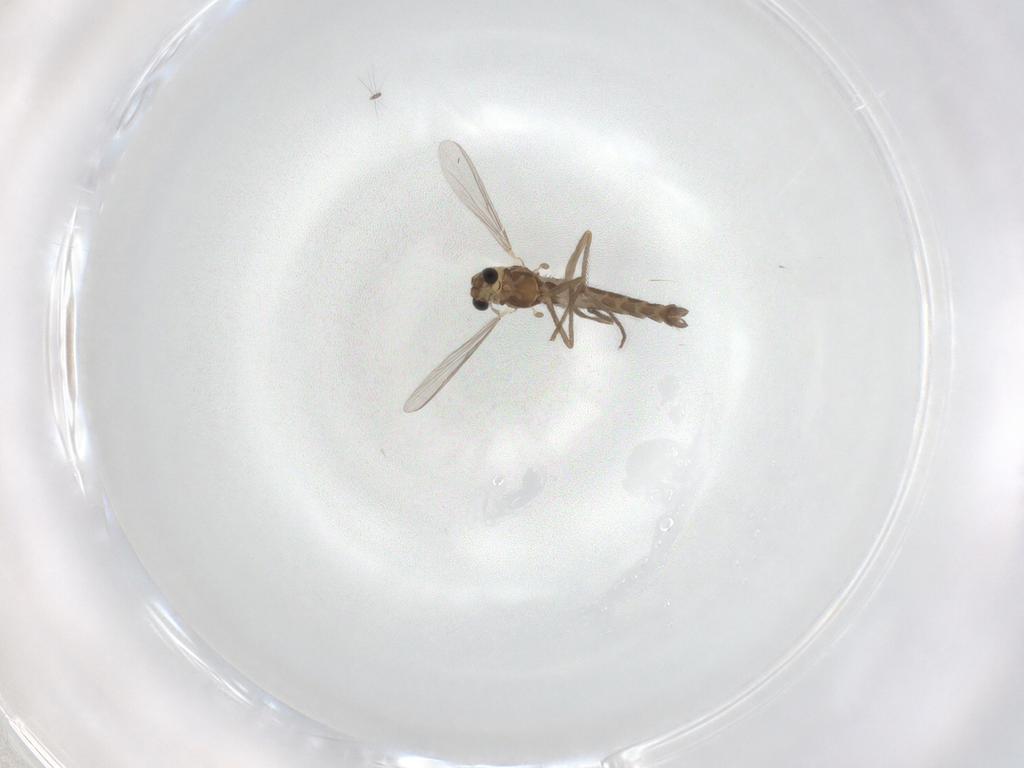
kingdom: Animalia
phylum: Arthropoda
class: Insecta
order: Diptera
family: Chironomidae
